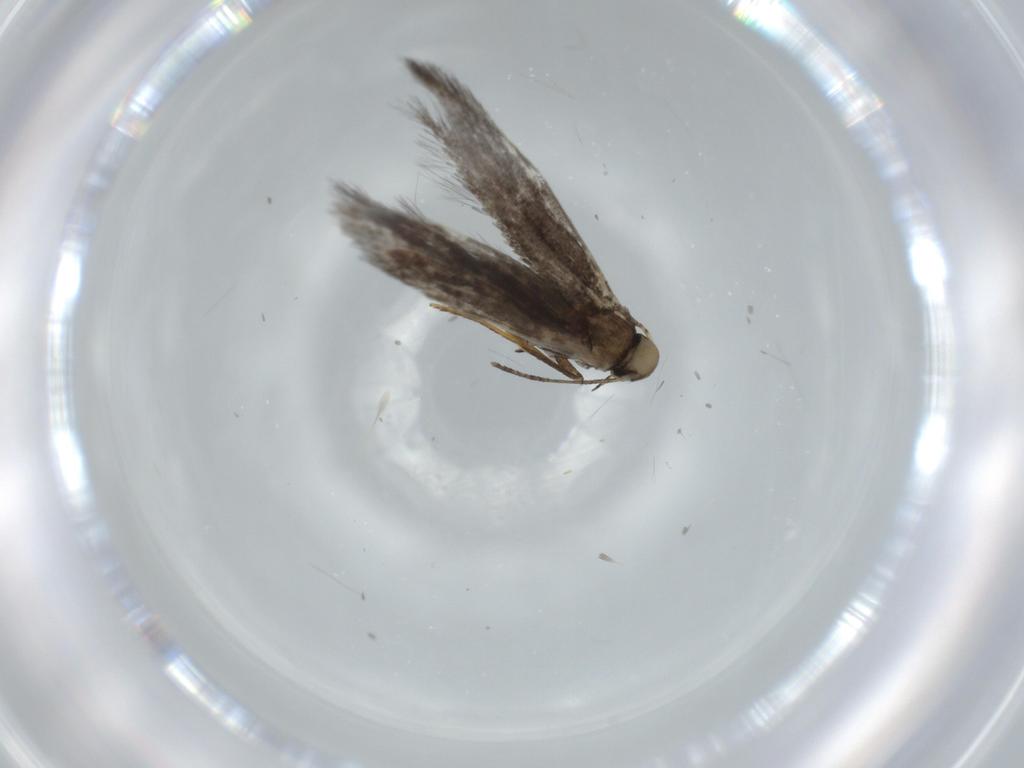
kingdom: Animalia
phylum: Arthropoda
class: Insecta
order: Lepidoptera
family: Heliozelidae
